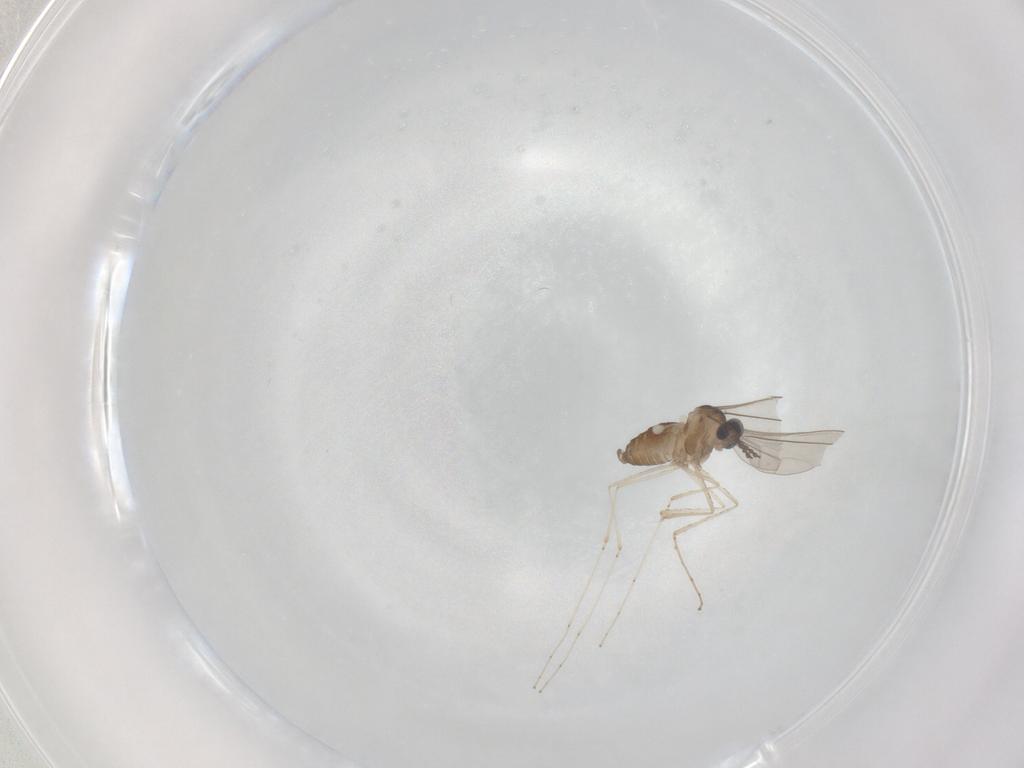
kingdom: Animalia
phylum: Arthropoda
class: Insecta
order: Diptera
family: Cecidomyiidae
